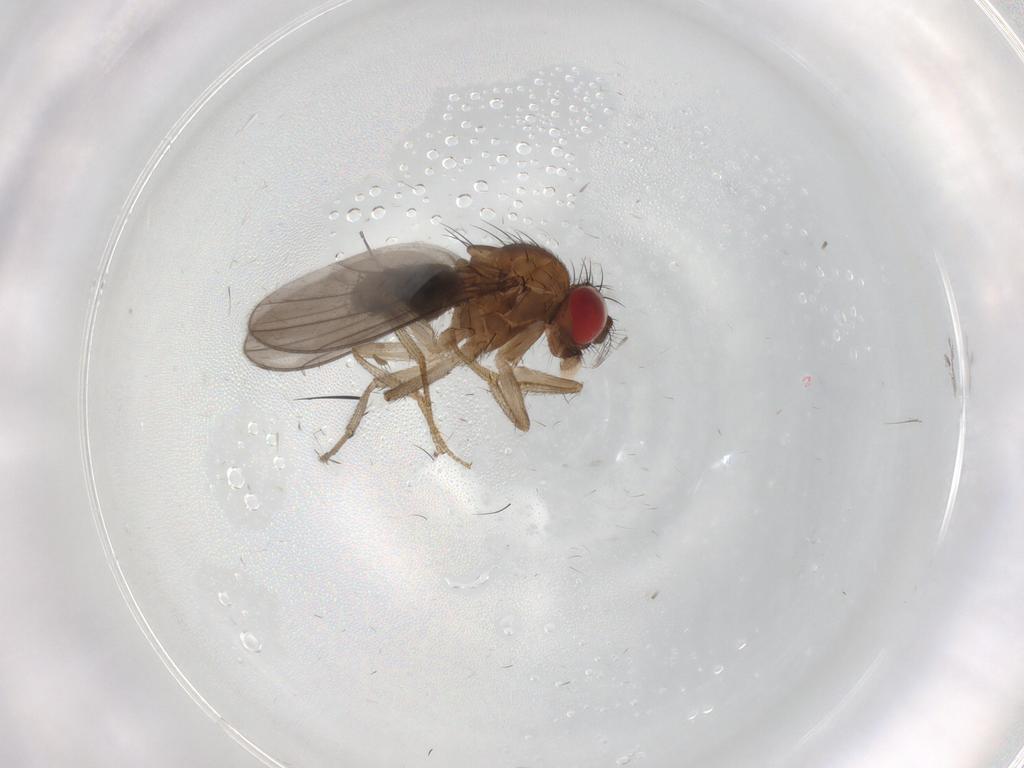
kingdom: Animalia
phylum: Arthropoda
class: Insecta
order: Diptera
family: Drosophilidae
